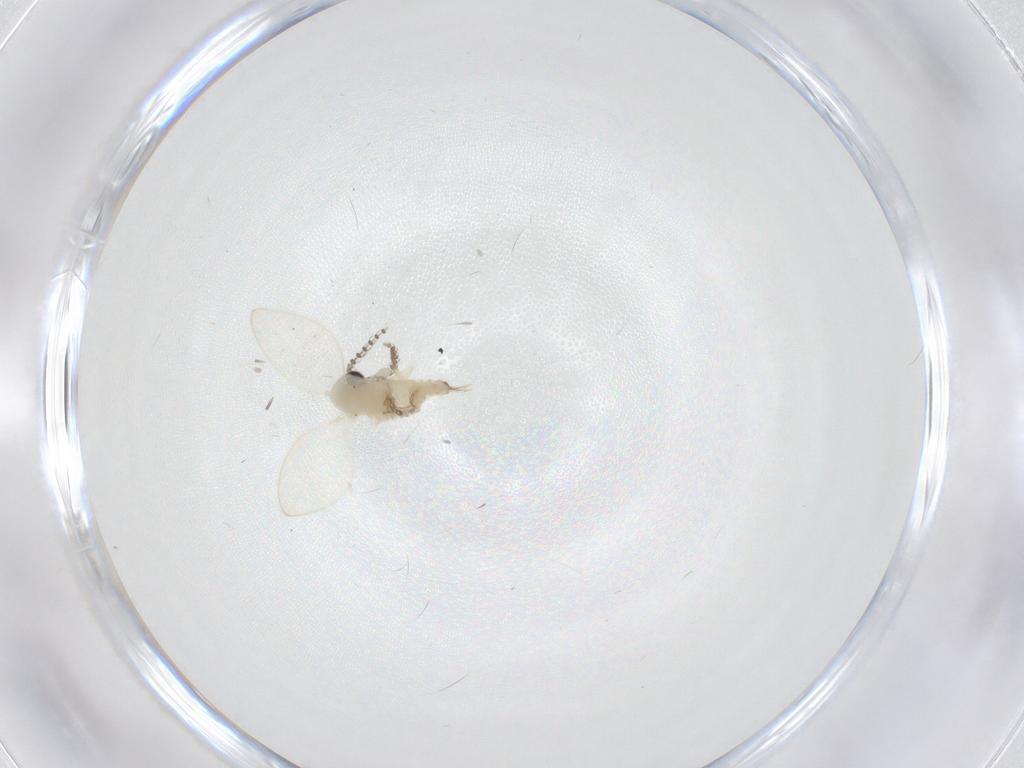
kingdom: Animalia
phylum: Arthropoda
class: Insecta
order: Diptera
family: Psychodidae
